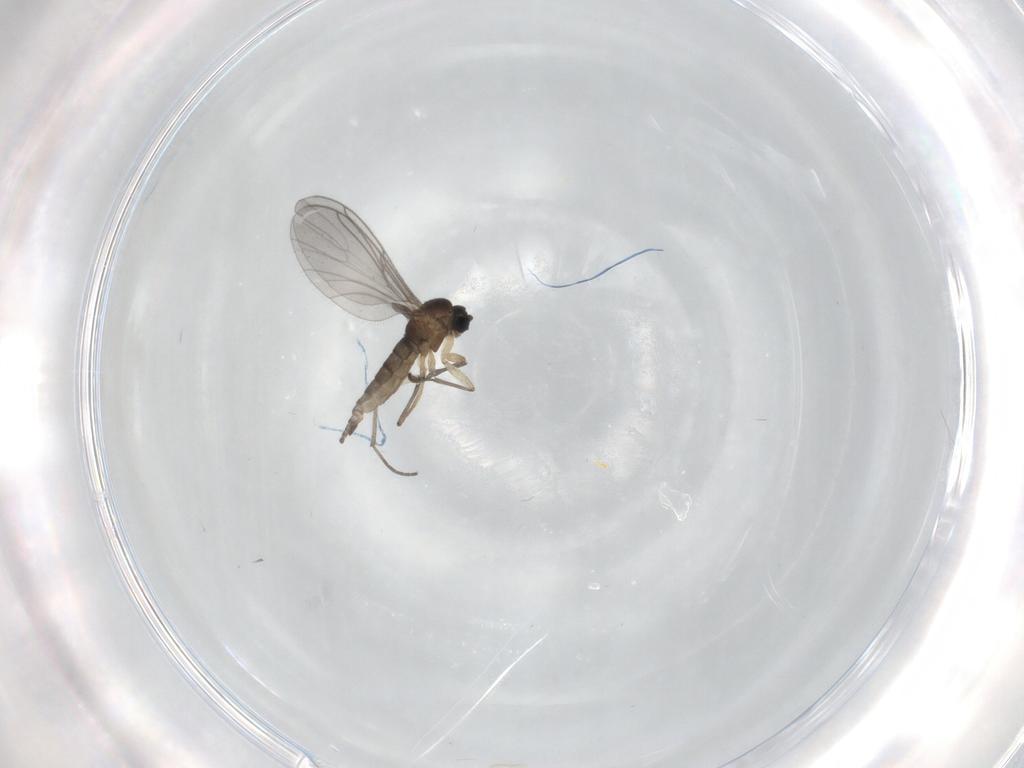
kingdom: Animalia
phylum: Arthropoda
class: Insecta
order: Diptera
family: Sciaridae
